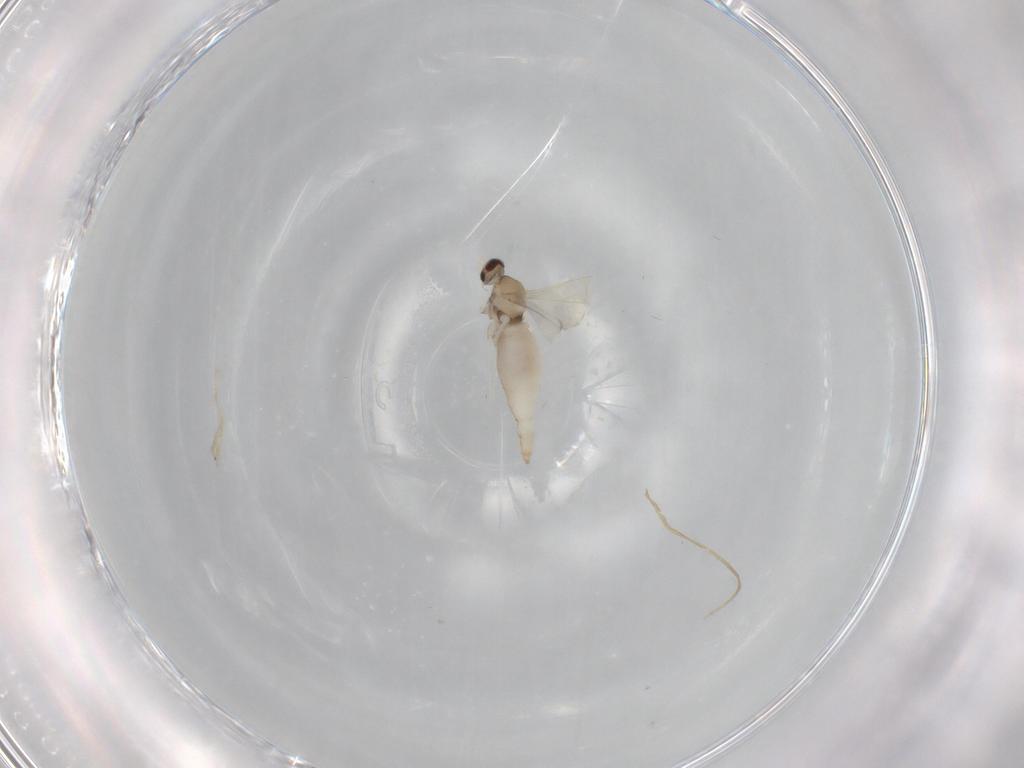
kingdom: Animalia
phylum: Arthropoda
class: Insecta
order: Diptera
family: Cecidomyiidae
